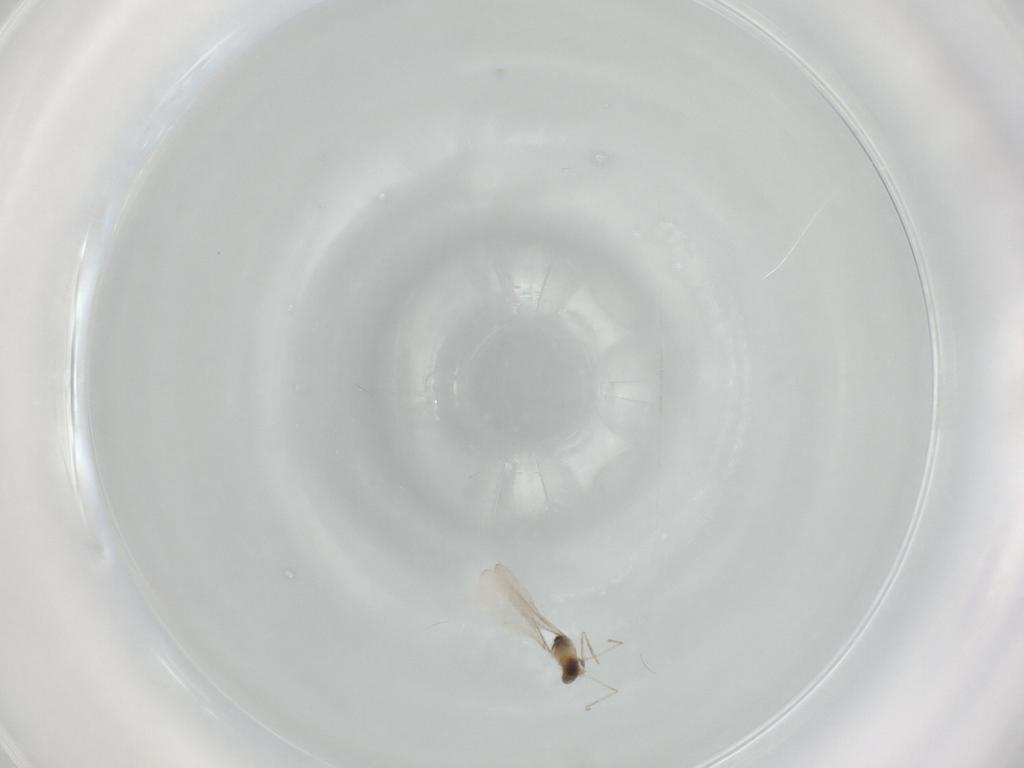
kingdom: Animalia
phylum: Arthropoda
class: Insecta
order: Diptera
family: Cecidomyiidae
